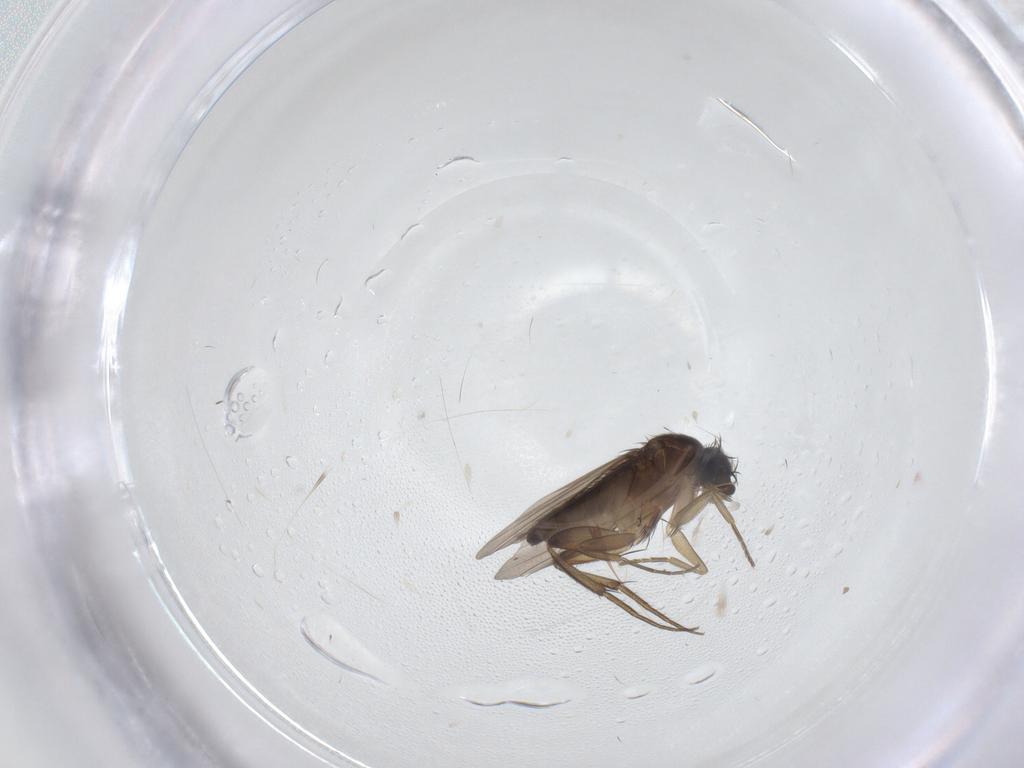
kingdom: Animalia
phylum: Arthropoda
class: Insecta
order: Diptera
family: Phoridae
